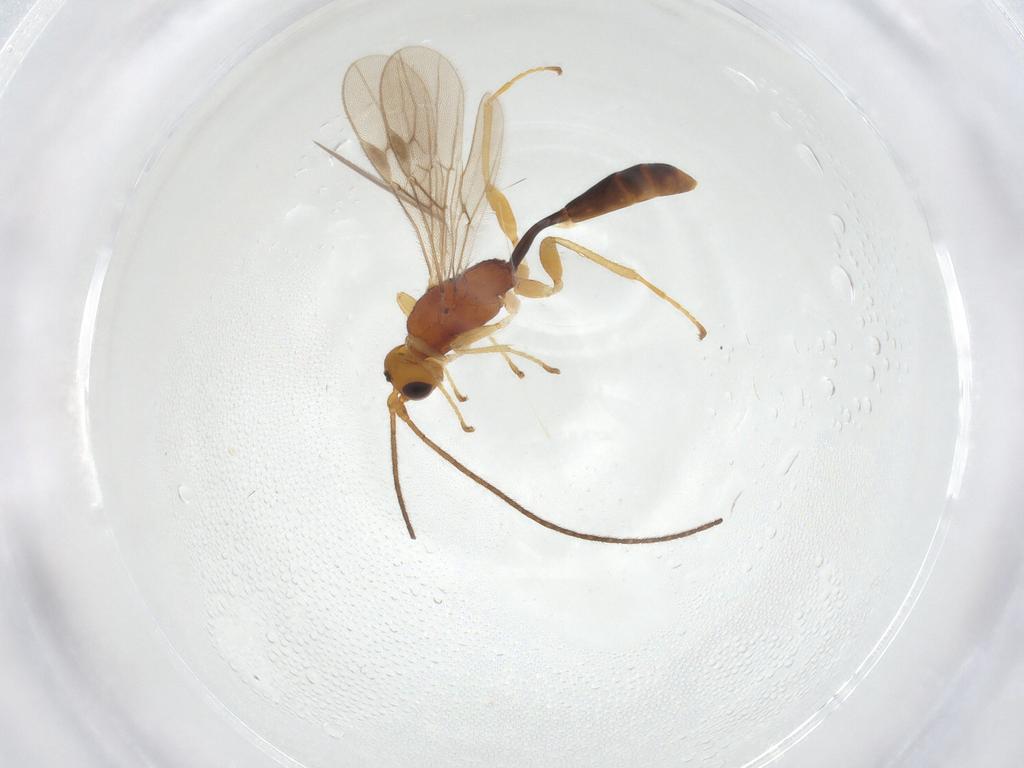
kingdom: Animalia
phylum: Arthropoda
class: Insecta
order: Hymenoptera
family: Braconidae
